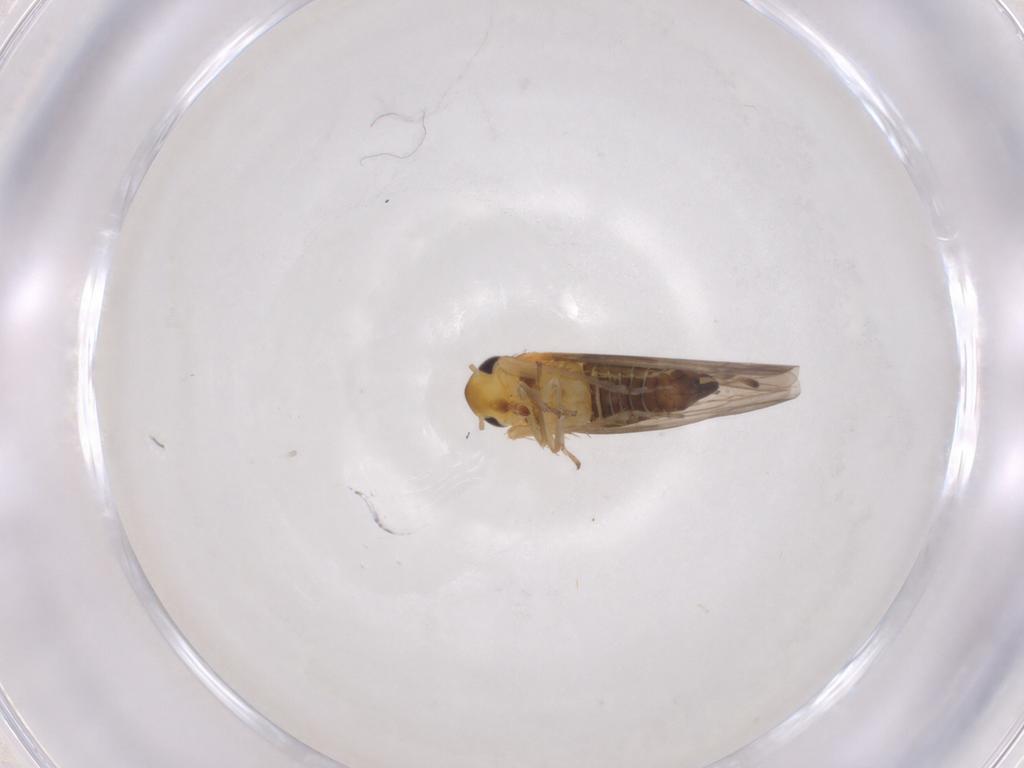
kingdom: Animalia
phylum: Arthropoda
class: Insecta
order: Hemiptera
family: Cicadellidae
